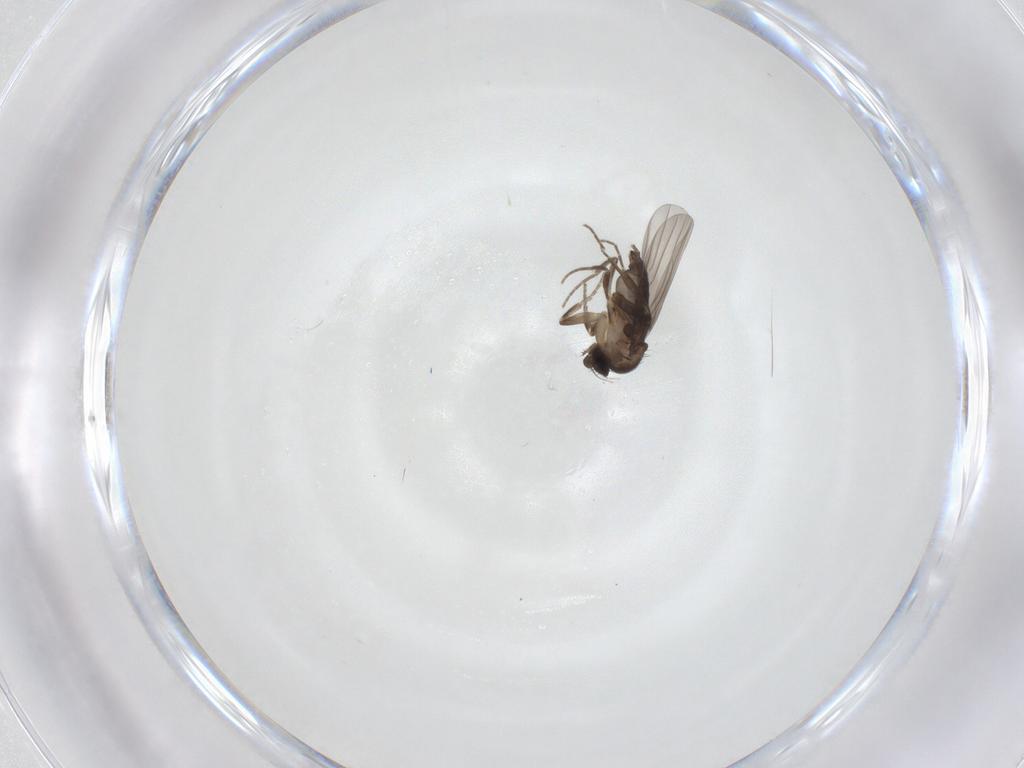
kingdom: Animalia
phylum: Arthropoda
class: Insecta
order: Diptera
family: Phoridae
